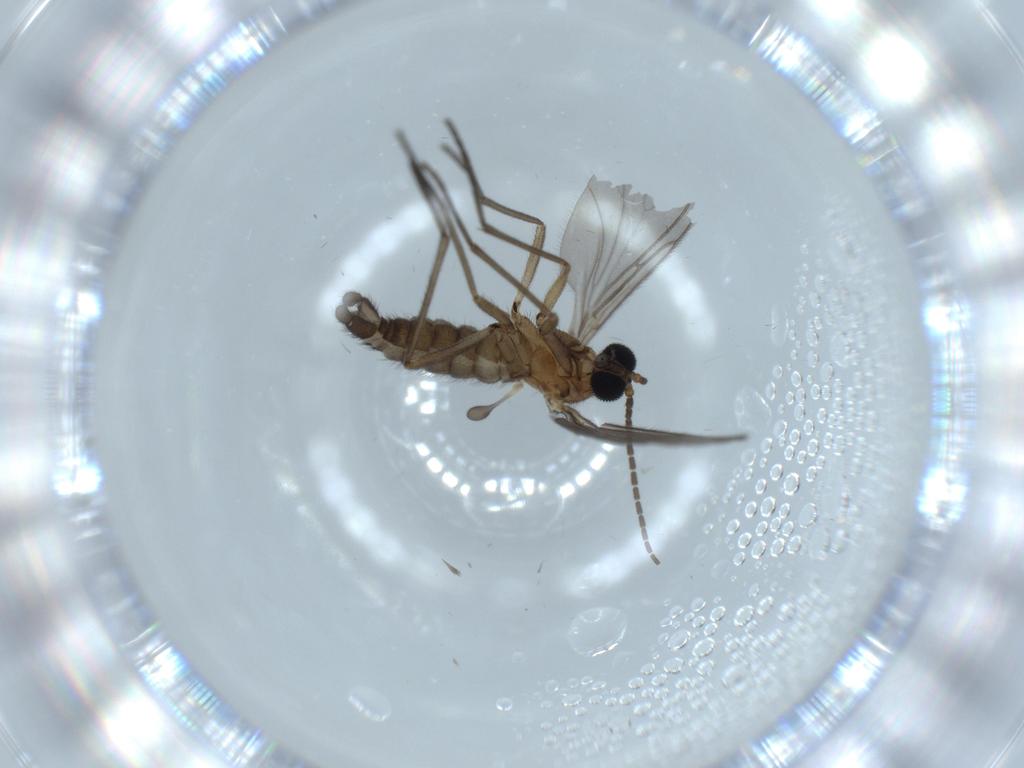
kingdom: Animalia
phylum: Arthropoda
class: Insecta
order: Diptera
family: Sciaridae
